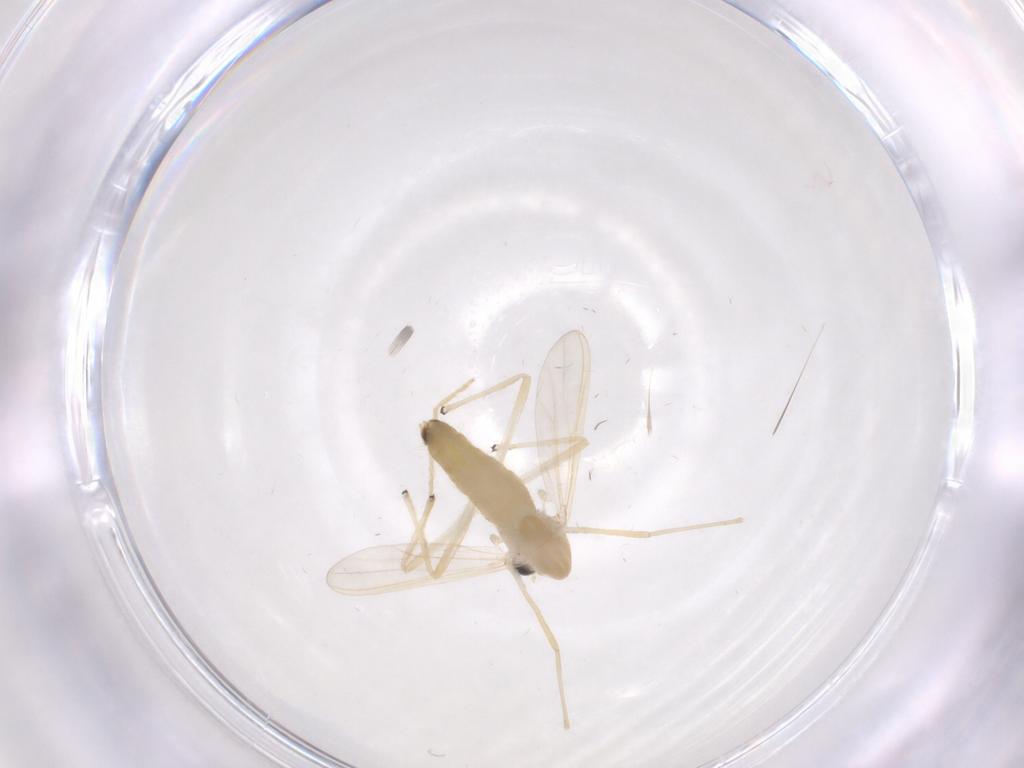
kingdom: Animalia
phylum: Arthropoda
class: Insecta
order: Diptera
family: Chironomidae
